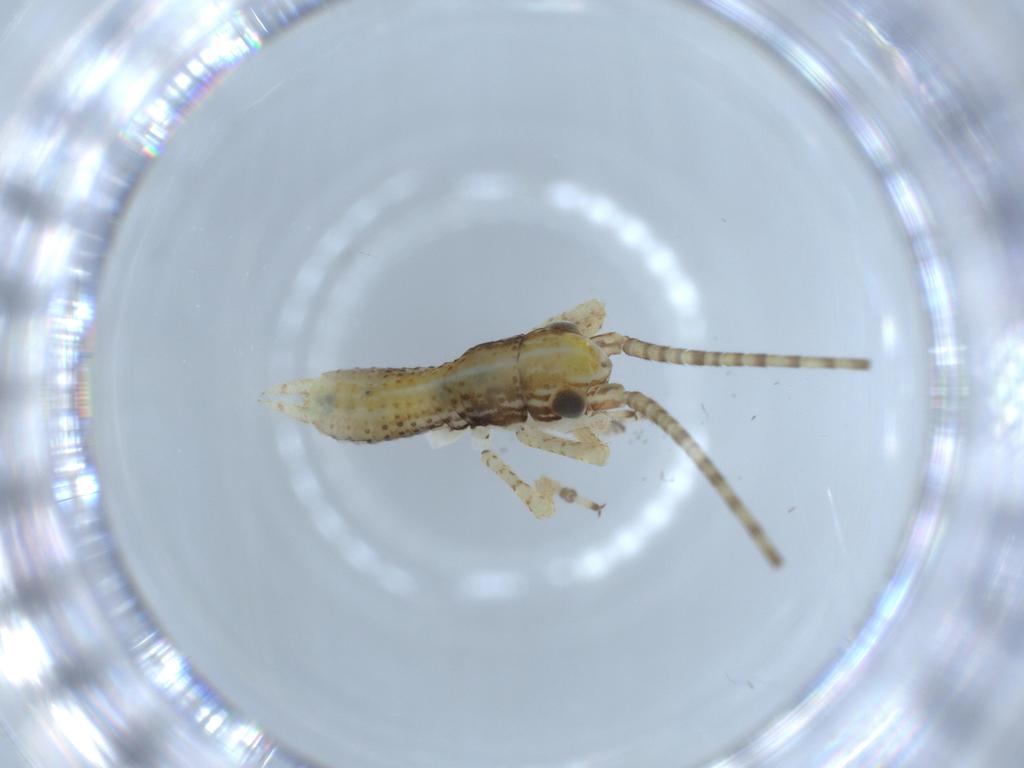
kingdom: Animalia
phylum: Arthropoda
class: Insecta
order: Orthoptera
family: Gryllidae
